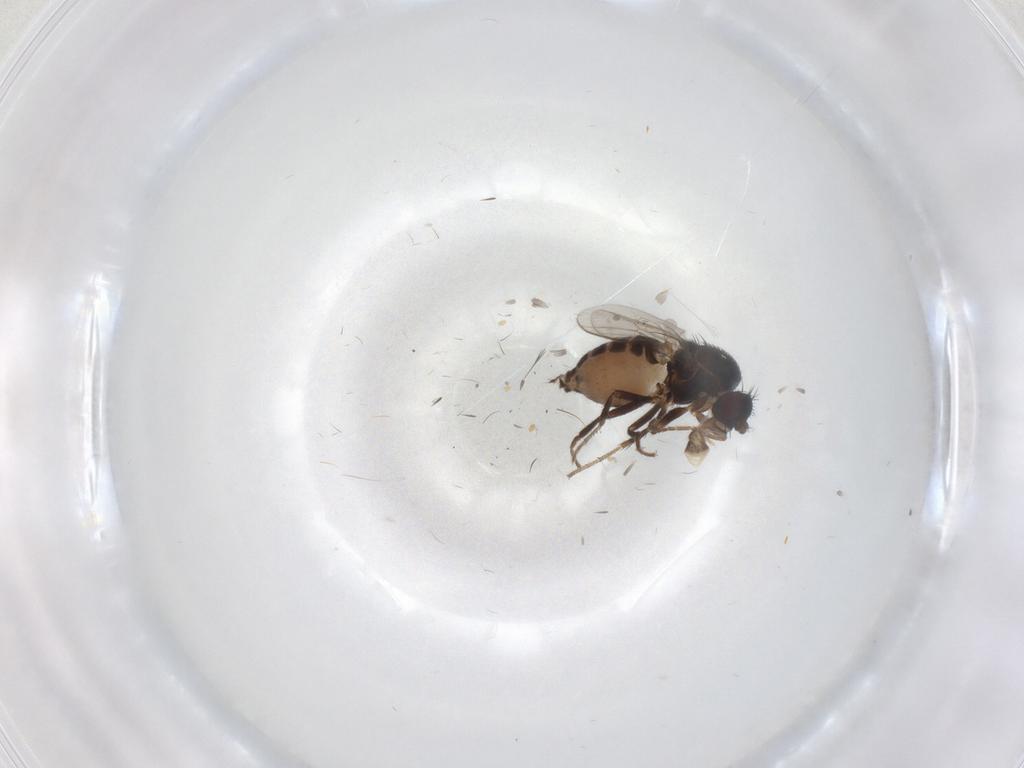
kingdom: Animalia
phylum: Arthropoda
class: Insecta
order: Diptera
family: Sphaeroceridae
